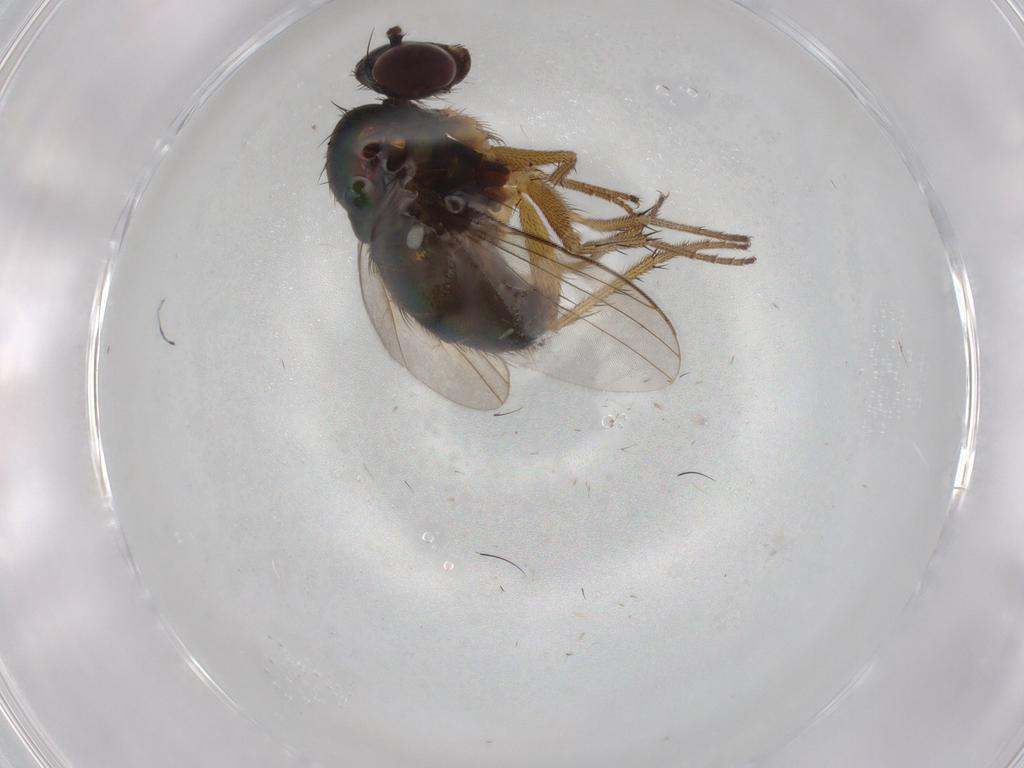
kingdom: Animalia
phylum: Arthropoda
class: Insecta
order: Diptera
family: Dolichopodidae
